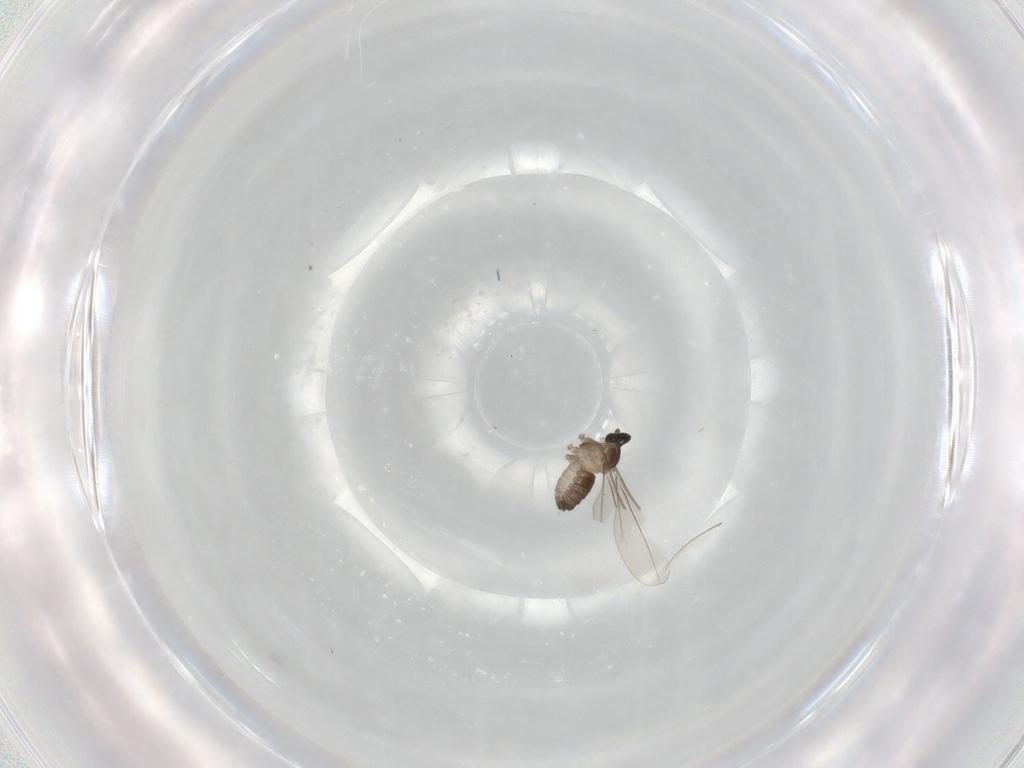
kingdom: Animalia
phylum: Arthropoda
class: Insecta
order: Diptera
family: Cecidomyiidae
